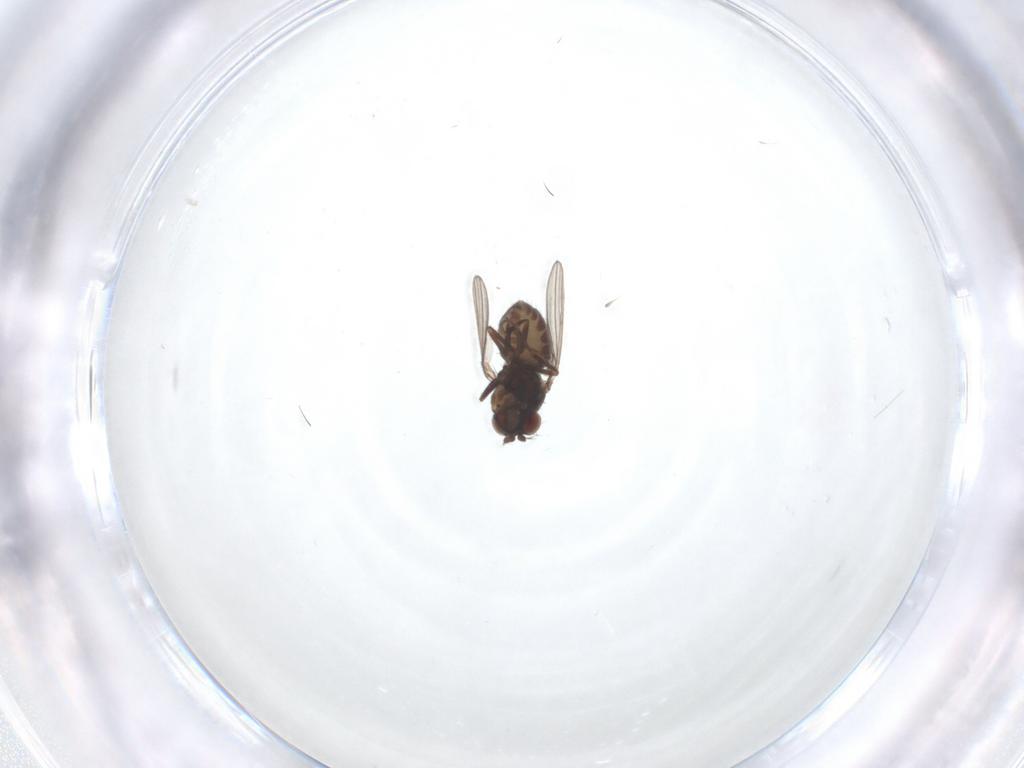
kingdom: Animalia
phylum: Arthropoda
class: Insecta
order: Diptera
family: Ephydridae
